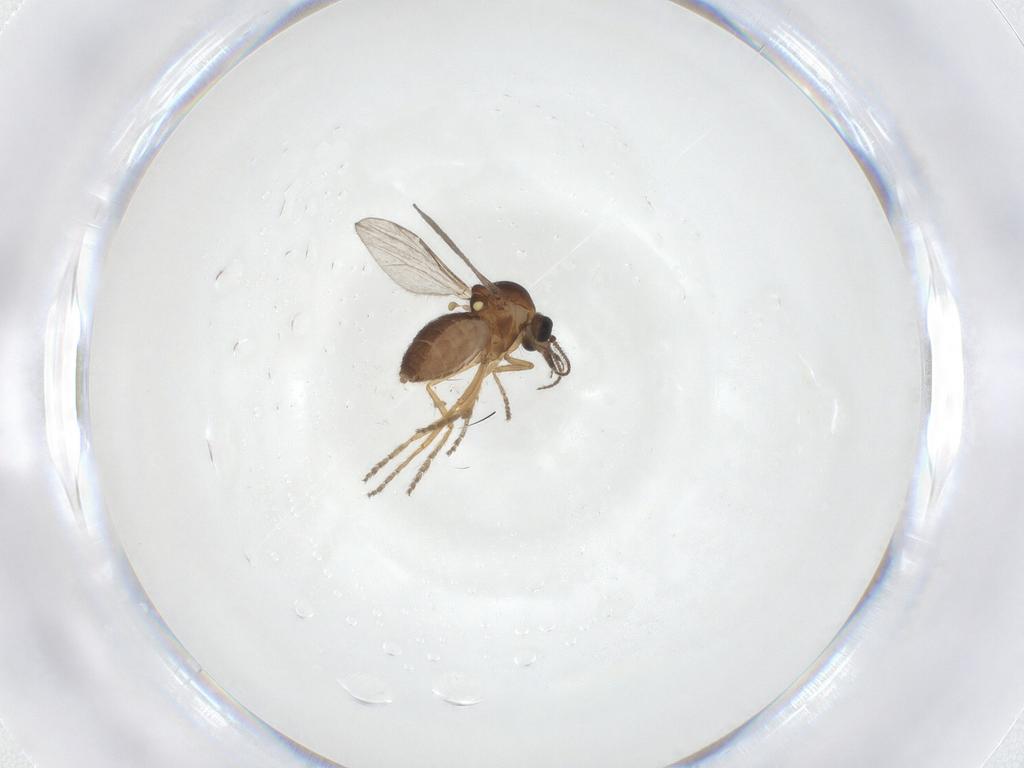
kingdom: Animalia
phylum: Arthropoda
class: Insecta
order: Diptera
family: Ceratopogonidae
